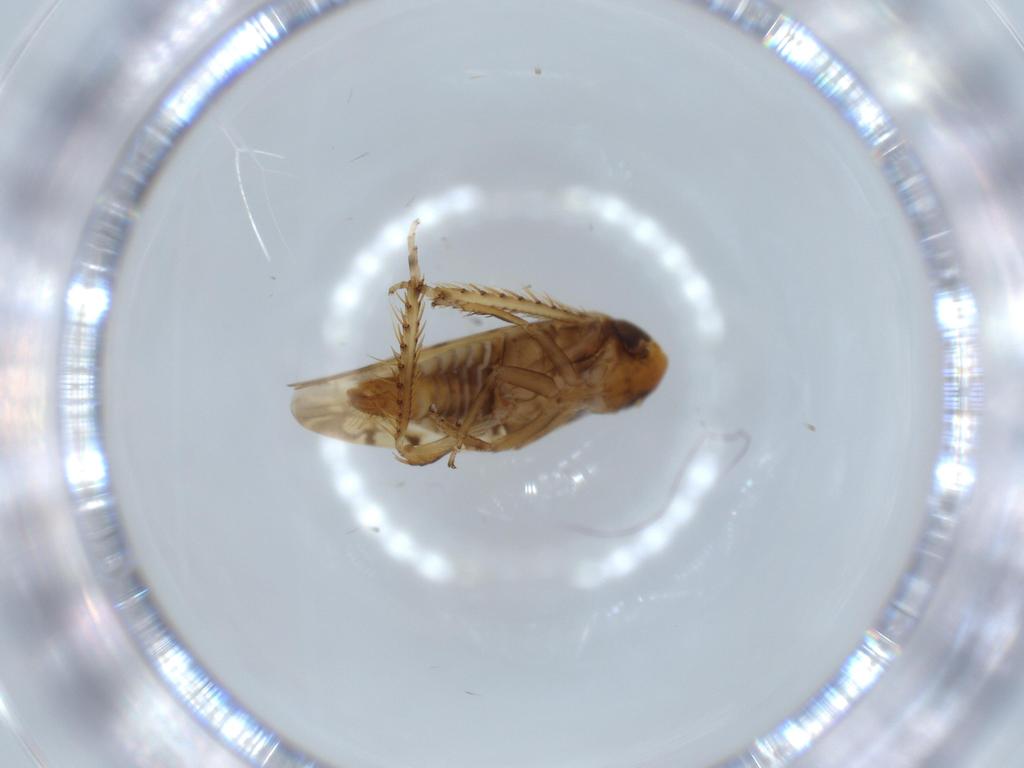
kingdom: Animalia
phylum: Arthropoda
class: Insecta
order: Hemiptera
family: Cicadellidae
